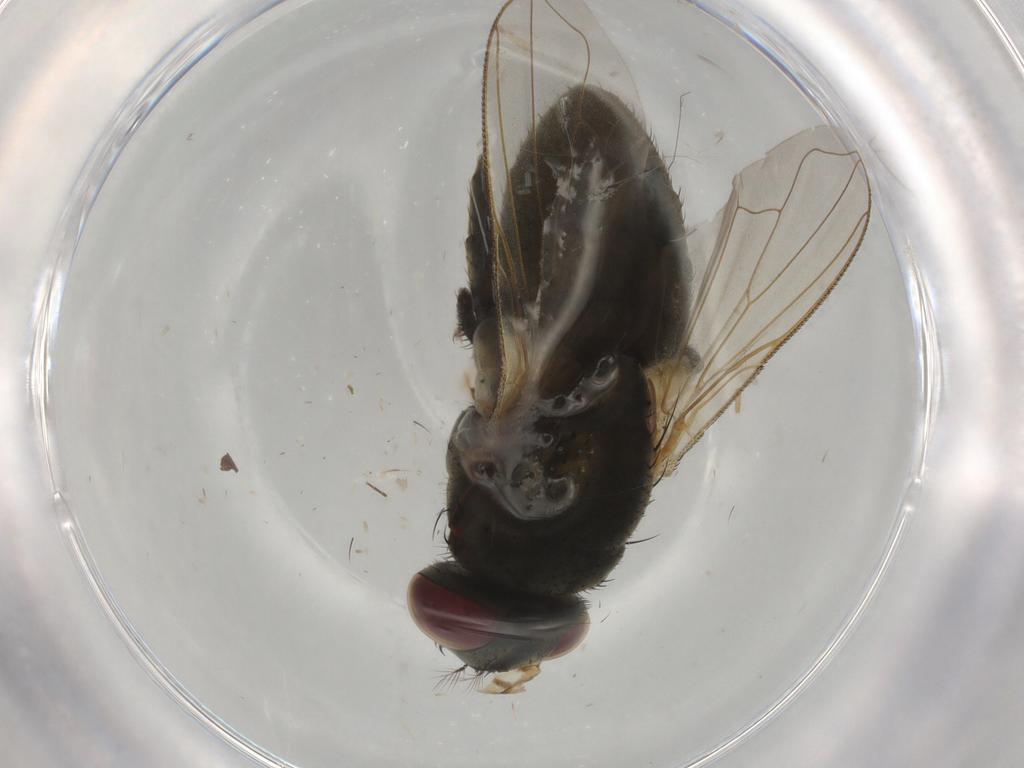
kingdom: Animalia
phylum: Arthropoda
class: Insecta
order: Diptera
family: Muscidae
